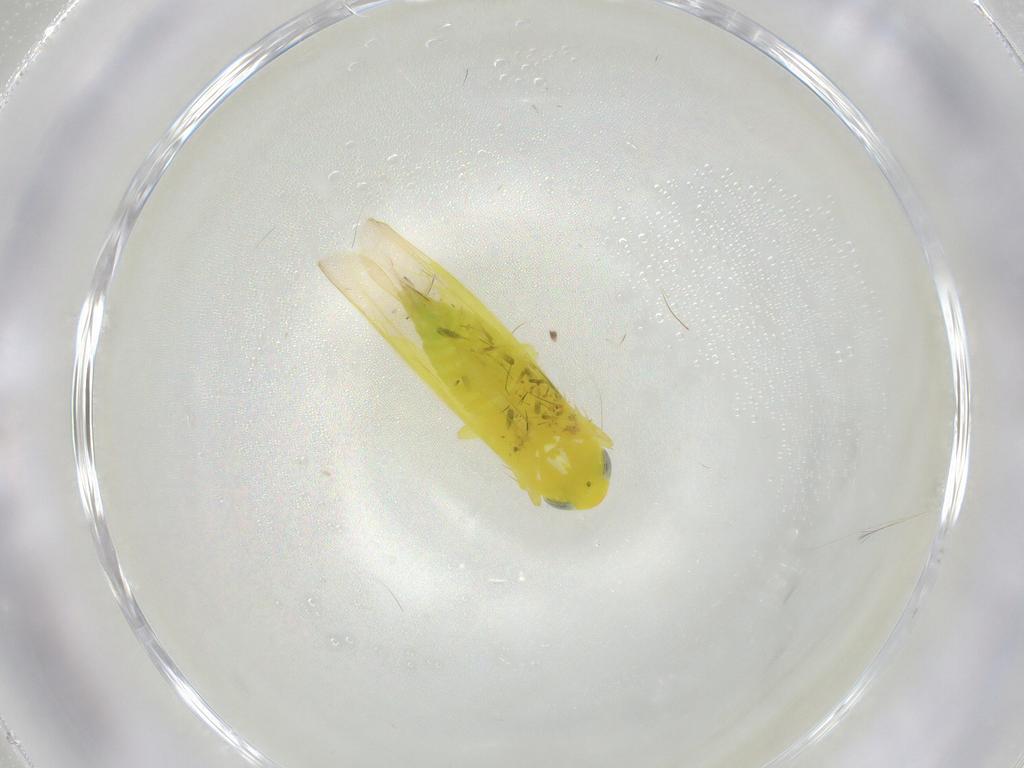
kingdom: Animalia
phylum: Arthropoda
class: Insecta
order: Hemiptera
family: Cicadellidae
